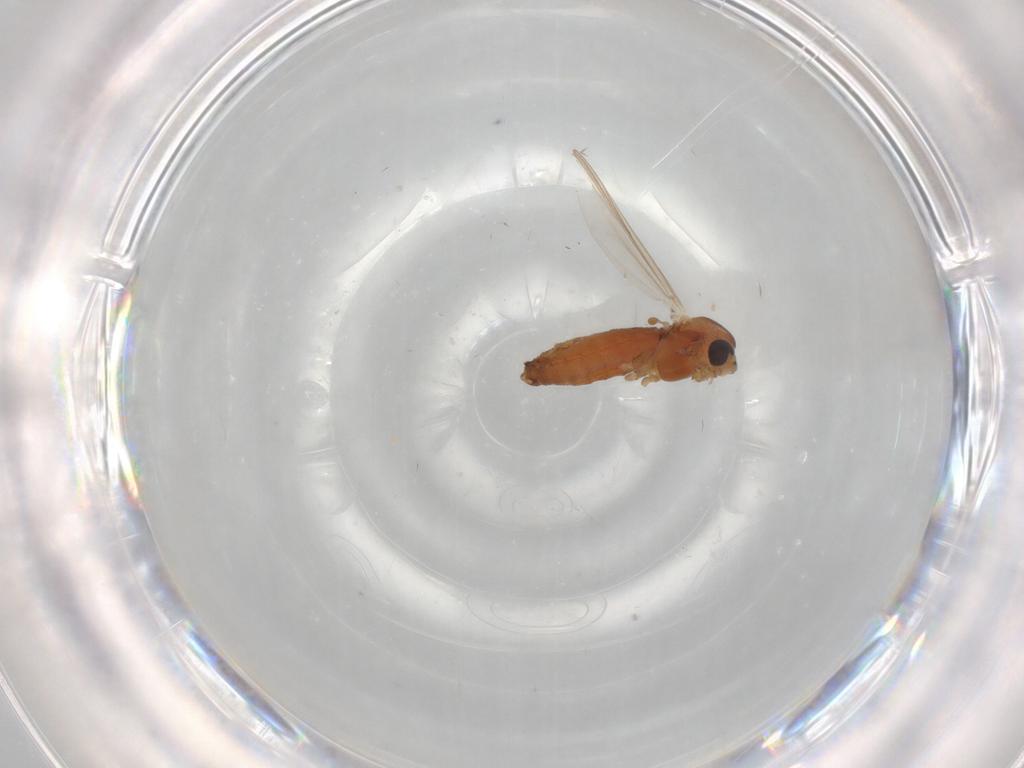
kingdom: Animalia
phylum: Arthropoda
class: Insecta
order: Diptera
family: Chironomidae
